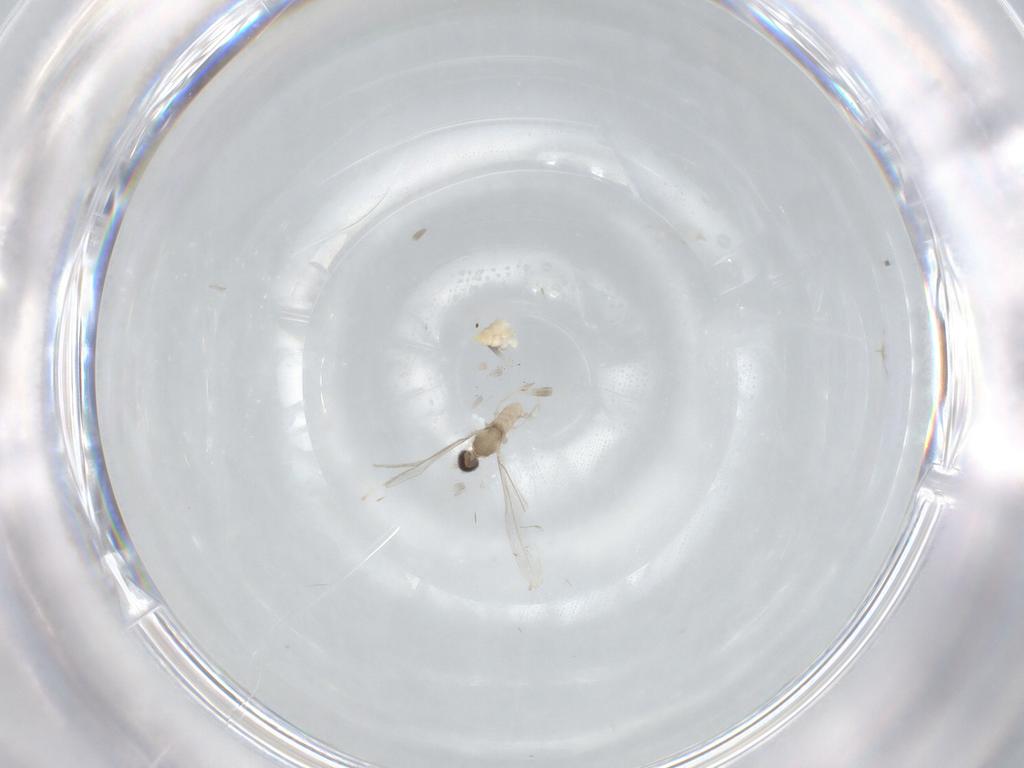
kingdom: Animalia
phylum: Arthropoda
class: Insecta
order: Diptera
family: Cecidomyiidae
